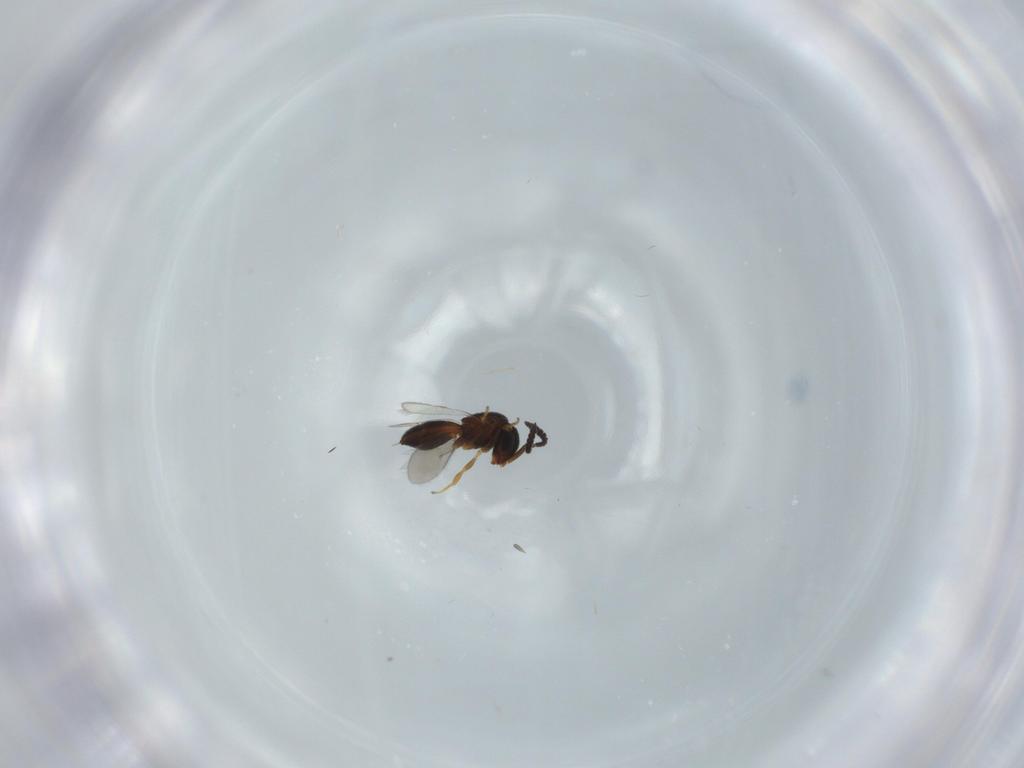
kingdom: Animalia
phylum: Arthropoda
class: Insecta
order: Hymenoptera
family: Scelionidae
